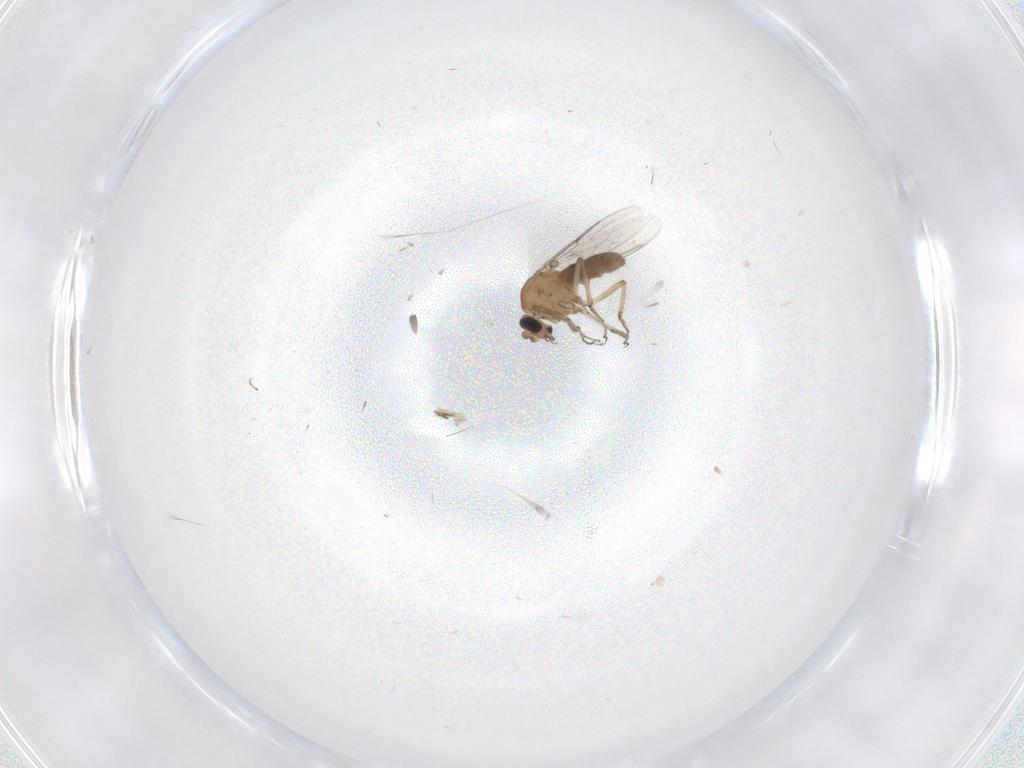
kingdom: Animalia
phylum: Arthropoda
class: Insecta
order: Diptera
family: Ceratopogonidae
